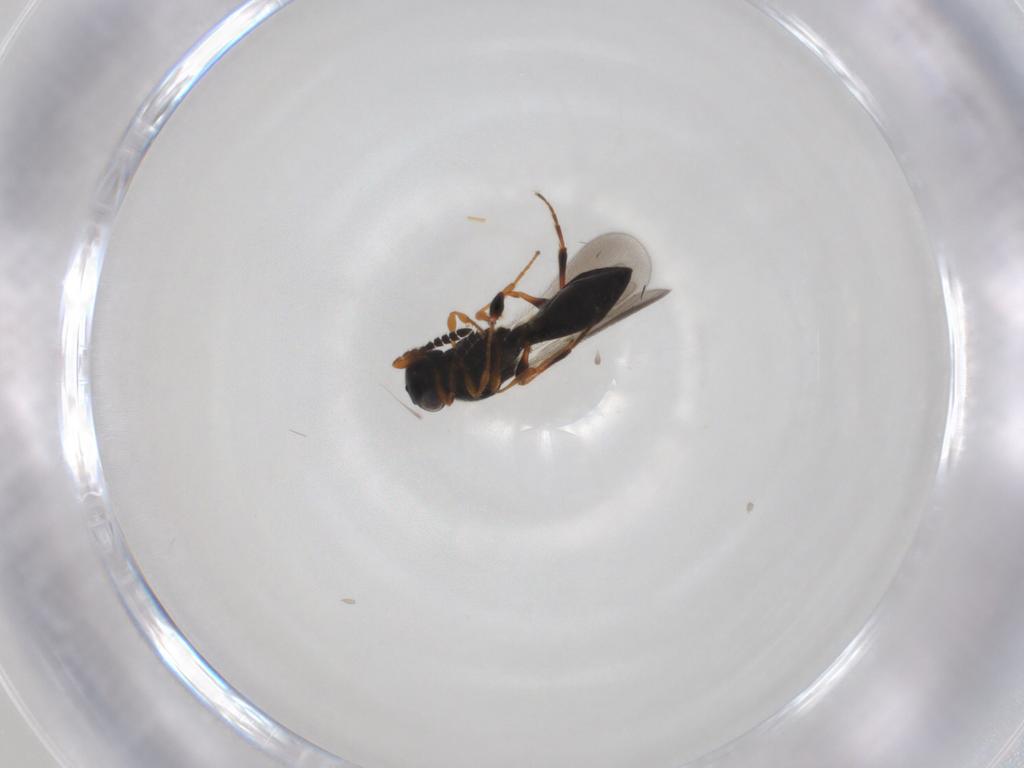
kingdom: Animalia
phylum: Arthropoda
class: Insecta
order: Hymenoptera
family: Platygastridae
